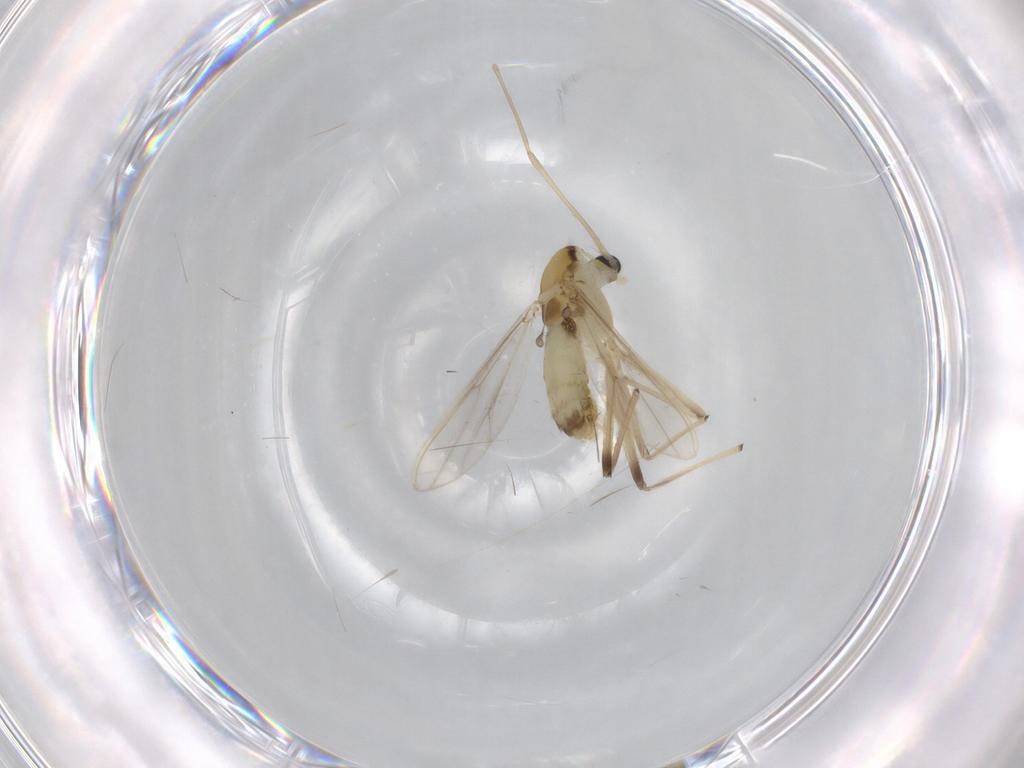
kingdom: Animalia
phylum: Arthropoda
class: Insecta
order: Diptera
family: Chironomidae
